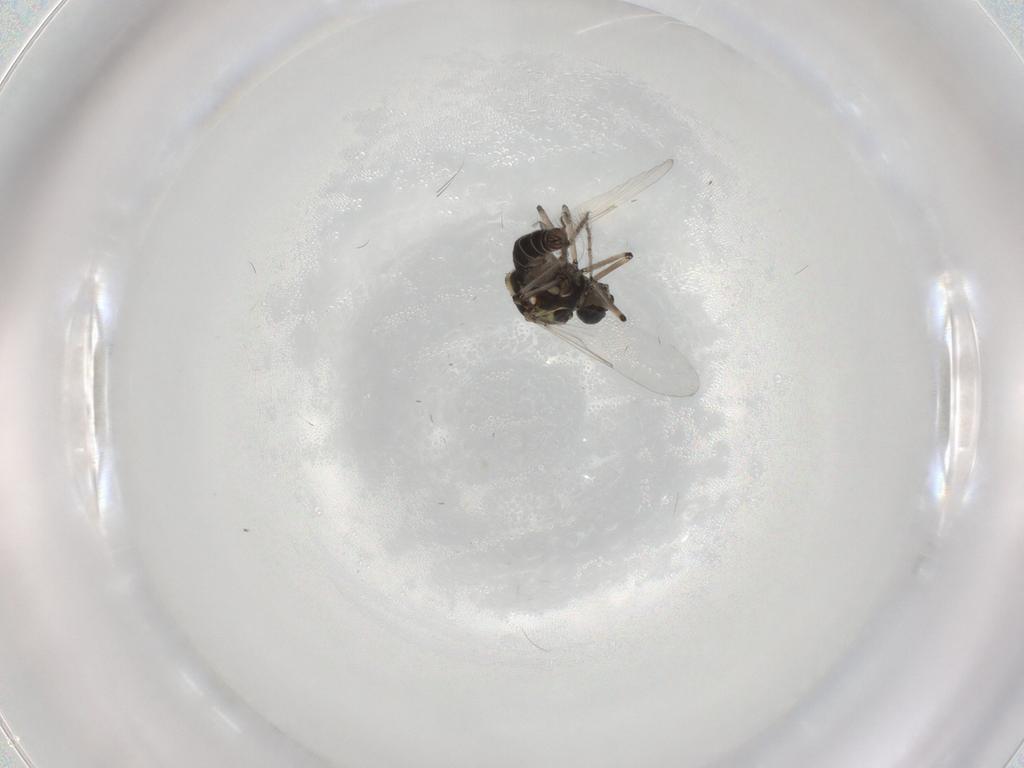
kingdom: Animalia
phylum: Arthropoda
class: Insecta
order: Diptera
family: Ceratopogonidae
